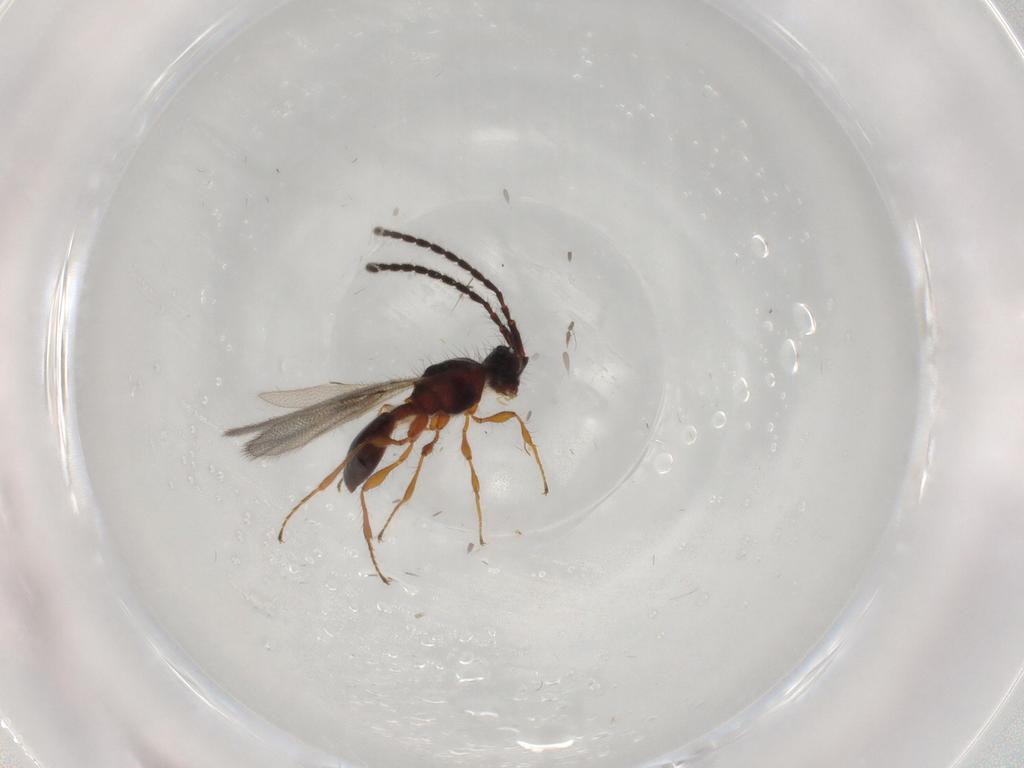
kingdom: Animalia
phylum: Arthropoda
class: Insecta
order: Hymenoptera
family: Diapriidae
